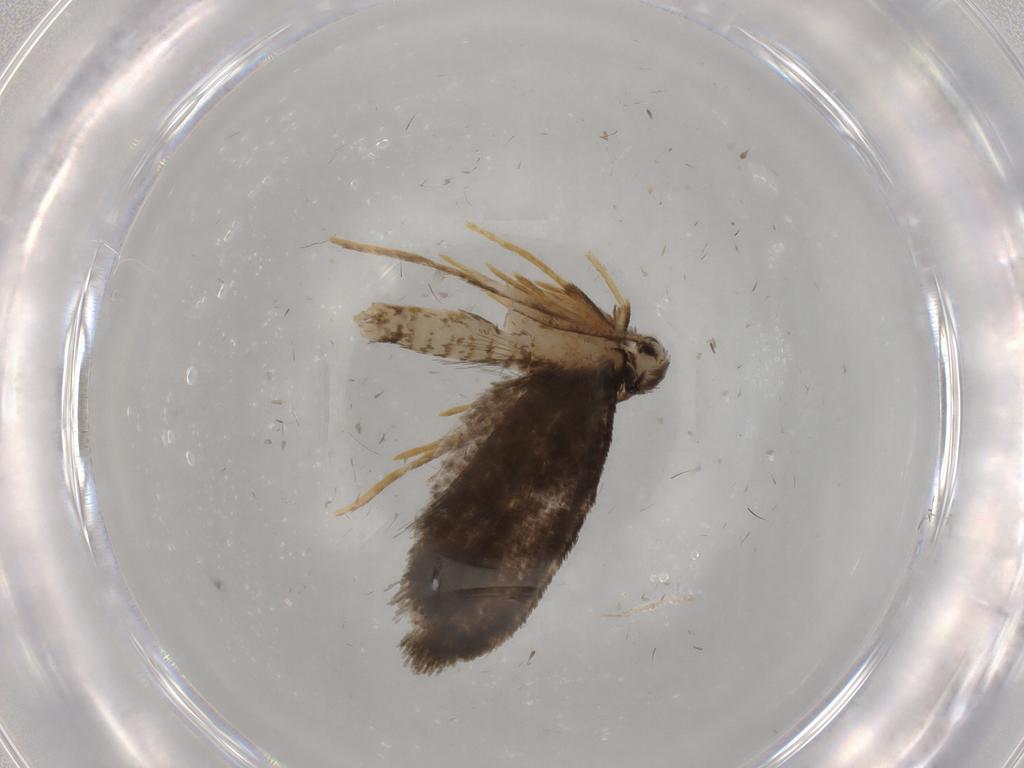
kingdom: Animalia
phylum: Arthropoda
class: Insecta
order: Lepidoptera
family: Psychidae
